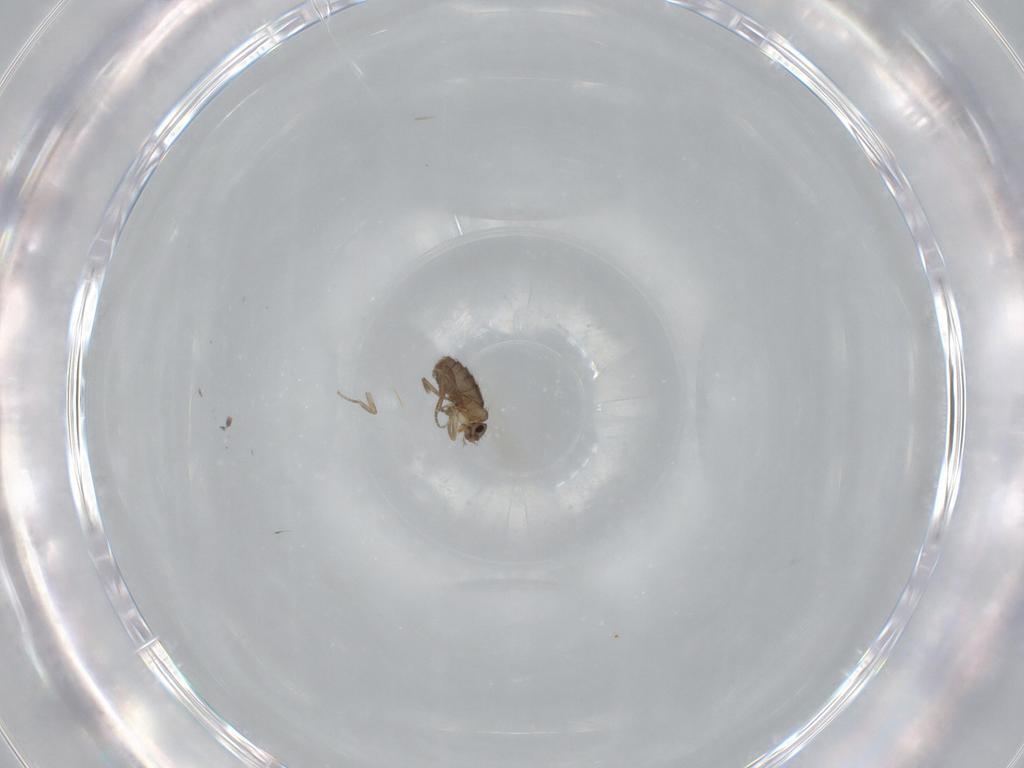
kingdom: Animalia
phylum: Arthropoda
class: Insecta
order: Diptera
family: Phoridae
